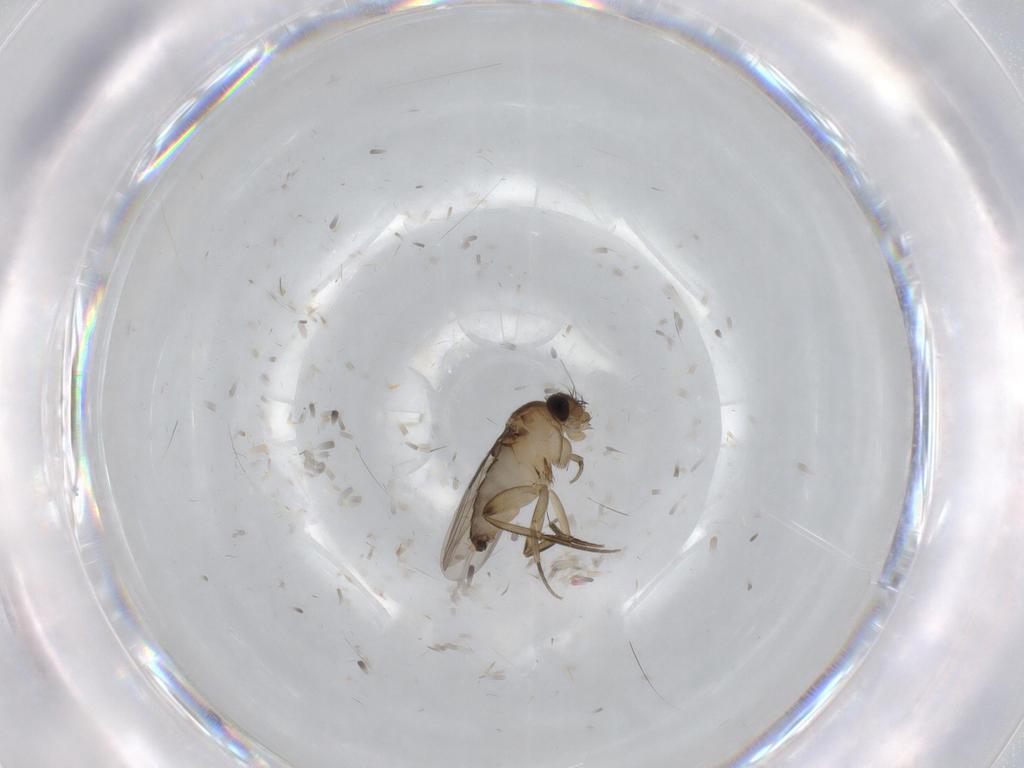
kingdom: Animalia
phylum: Arthropoda
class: Insecta
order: Diptera
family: Phoridae
